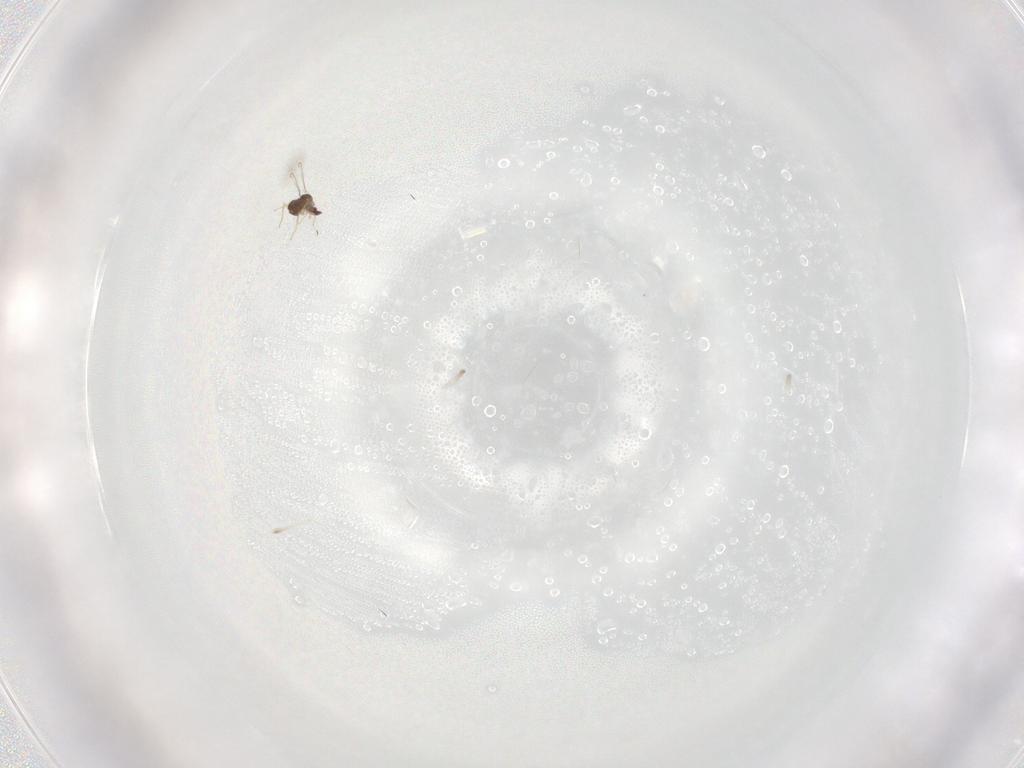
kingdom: Animalia
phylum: Arthropoda
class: Insecta
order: Hymenoptera
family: Mymaridae
